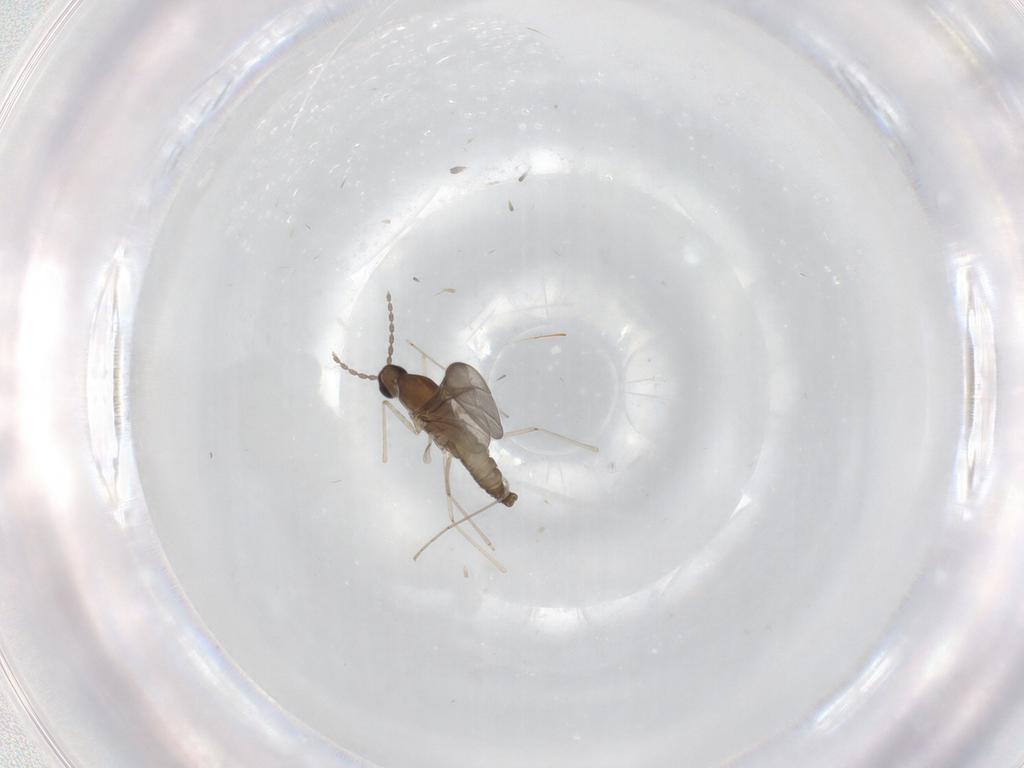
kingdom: Animalia
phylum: Arthropoda
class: Insecta
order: Diptera
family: Cecidomyiidae
